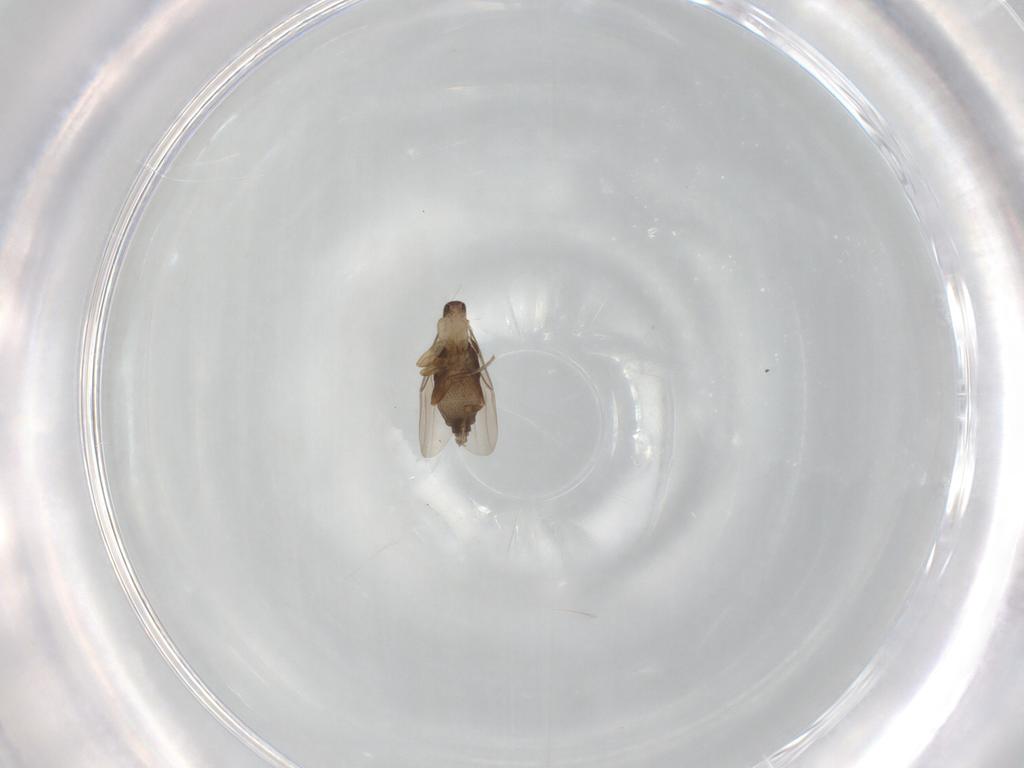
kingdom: Animalia
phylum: Arthropoda
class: Insecta
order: Diptera
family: Phoridae
